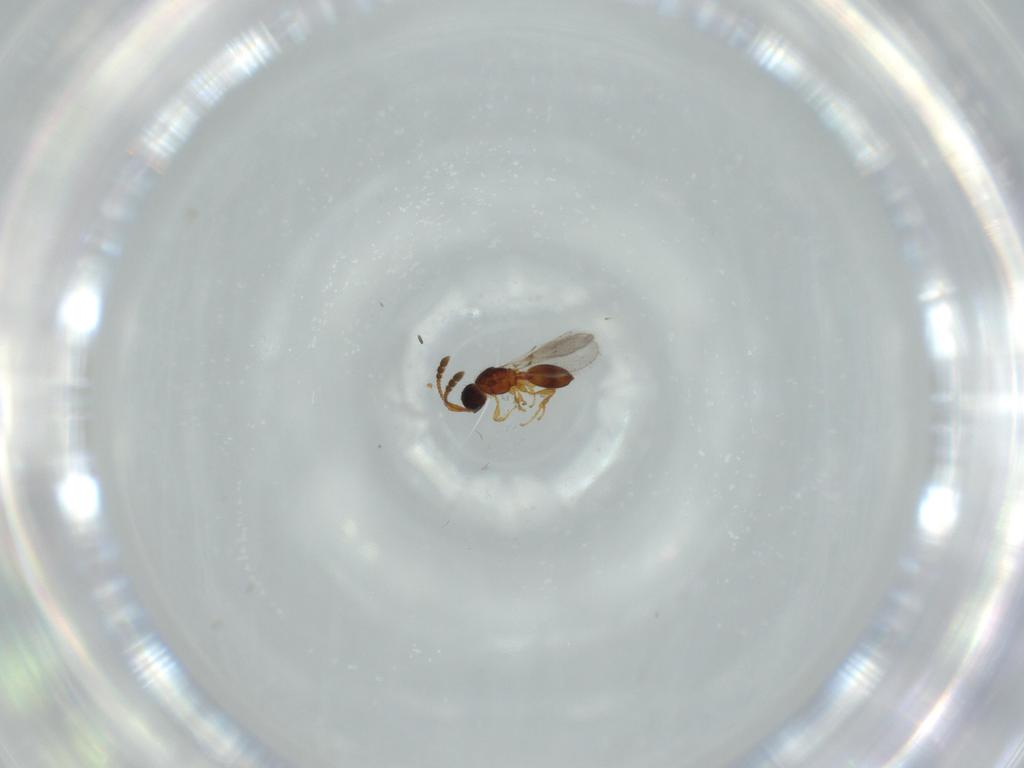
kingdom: Animalia
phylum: Arthropoda
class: Insecta
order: Hymenoptera
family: Diapriidae
